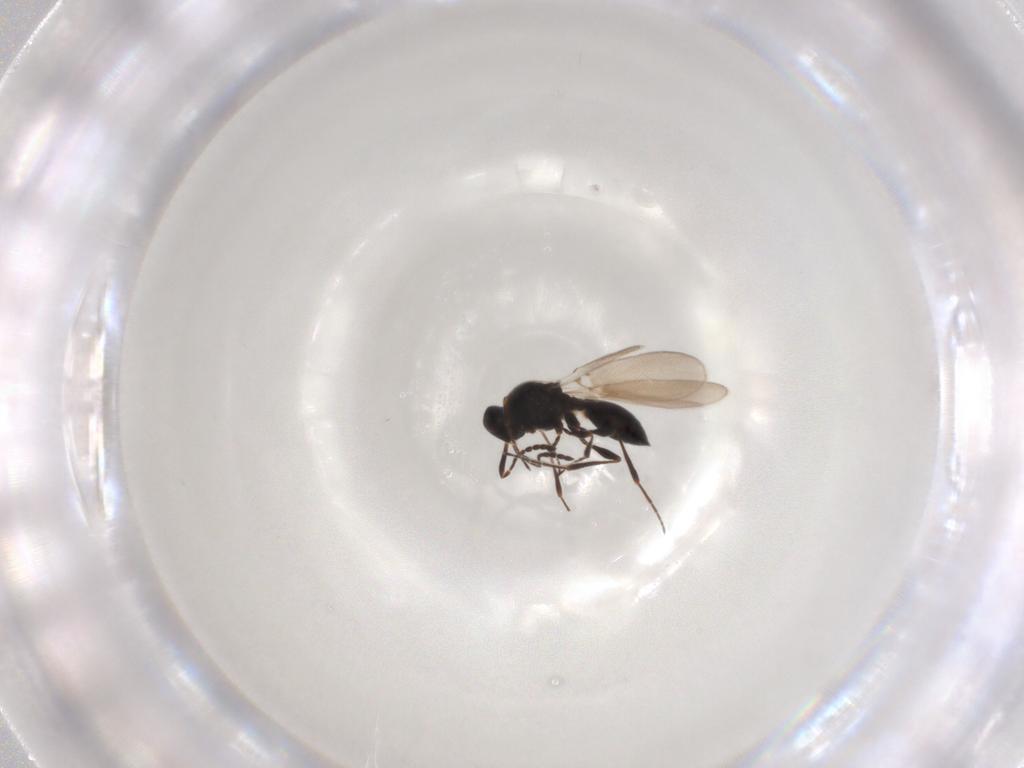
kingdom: Animalia
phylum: Arthropoda
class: Insecta
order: Hymenoptera
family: Platygastridae
